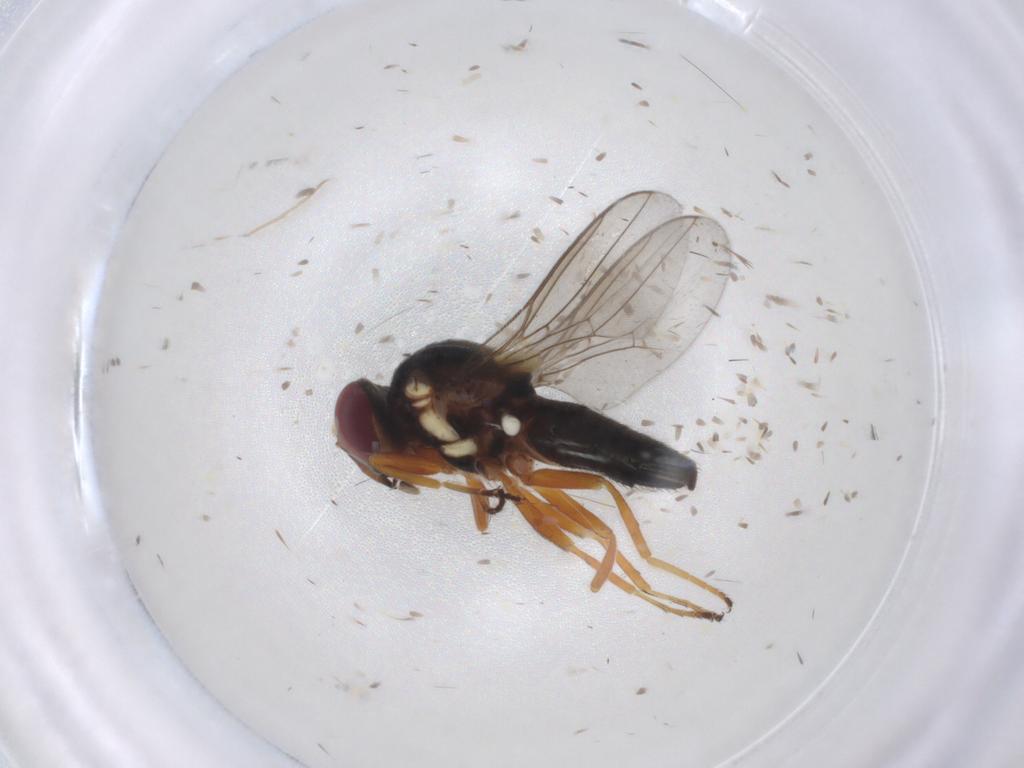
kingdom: Animalia
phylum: Arthropoda
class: Insecta
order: Diptera
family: Chloropidae
